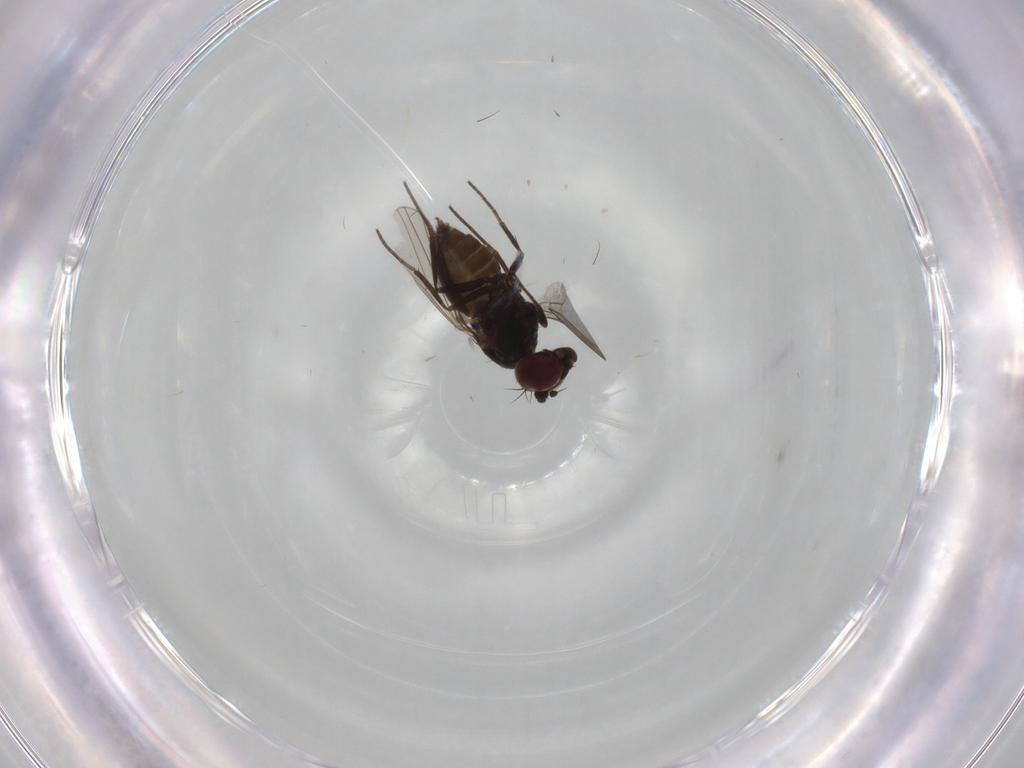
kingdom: Animalia
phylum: Arthropoda
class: Insecta
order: Diptera
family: Dolichopodidae
